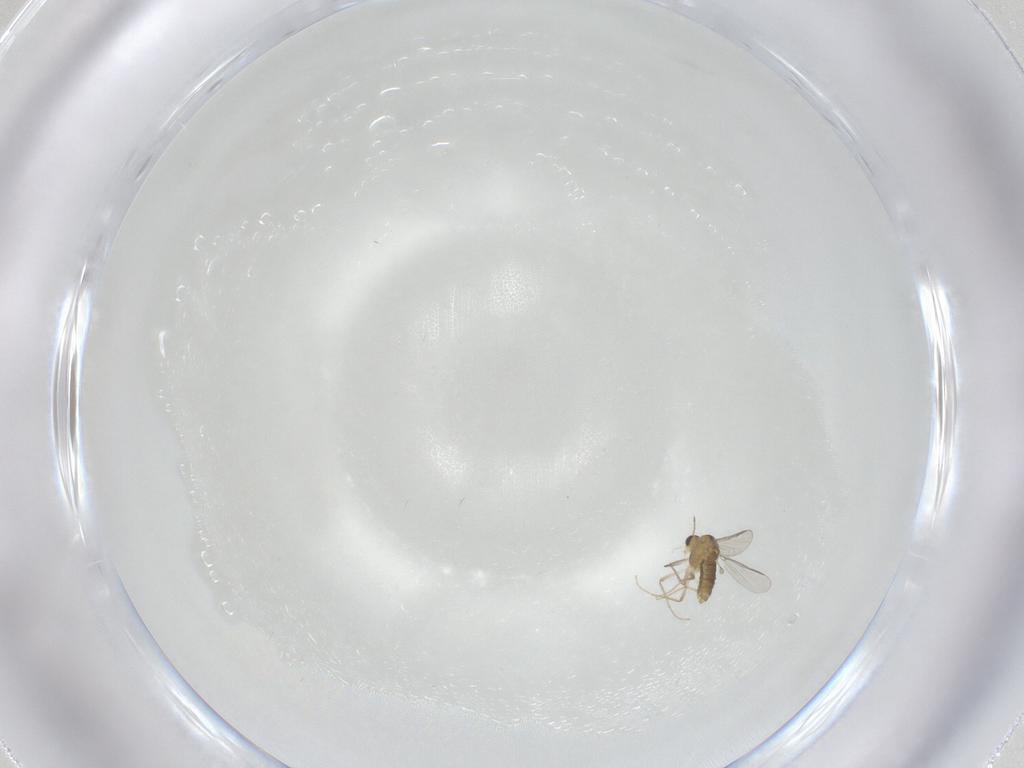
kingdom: Animalia
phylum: Arthropoda
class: Insecta
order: Diptera
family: Chironomidae
